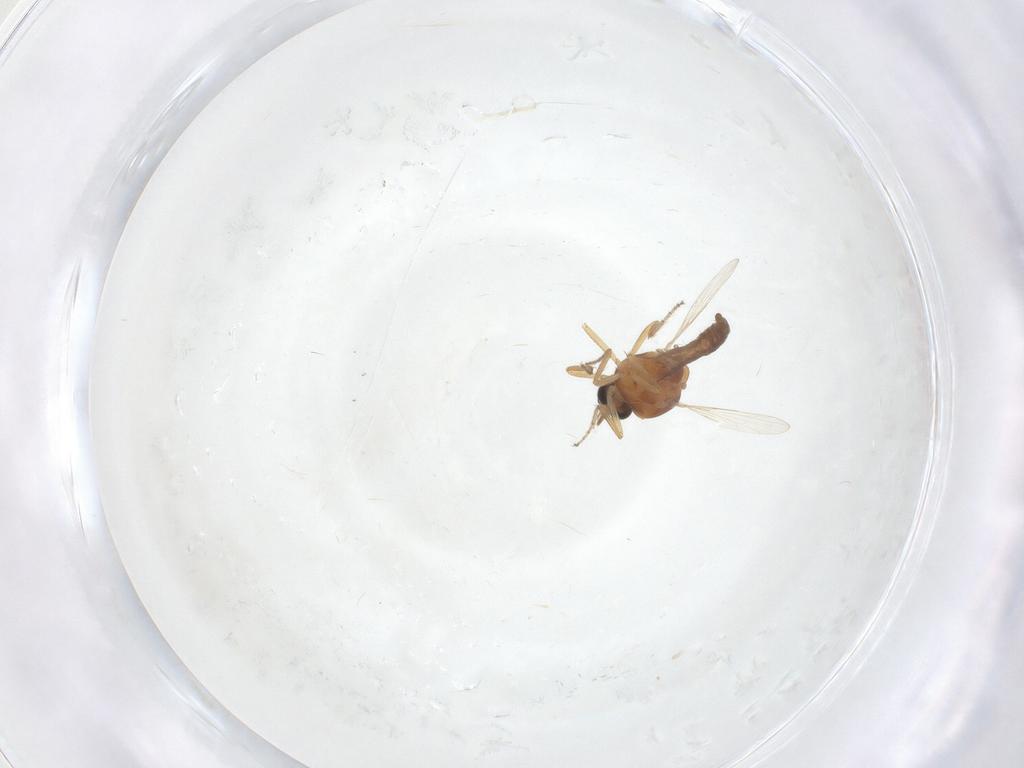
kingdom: Animalia
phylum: Arthropoda
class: Insecta
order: Diptera
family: Ceratopogonidae
